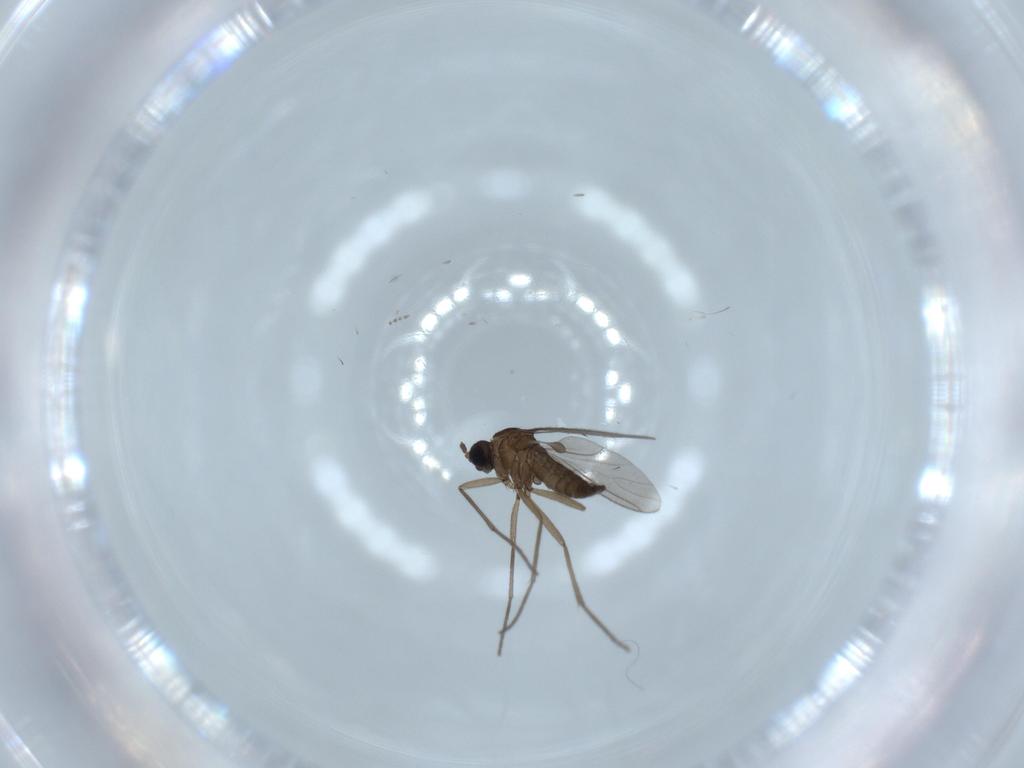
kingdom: Animalia
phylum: Arthropoda
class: Insecta
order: Diptera
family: Cecidomyiidae
